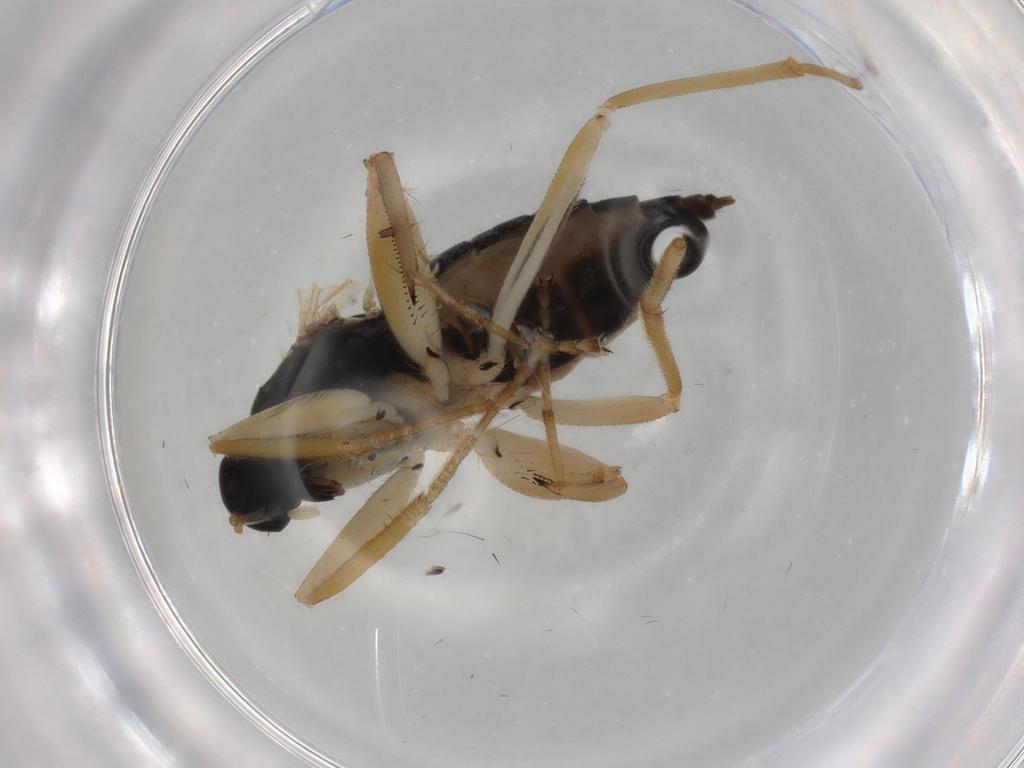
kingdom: Animalia
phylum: Arthropoda
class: Insecta
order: Diptera
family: Hybotidae
